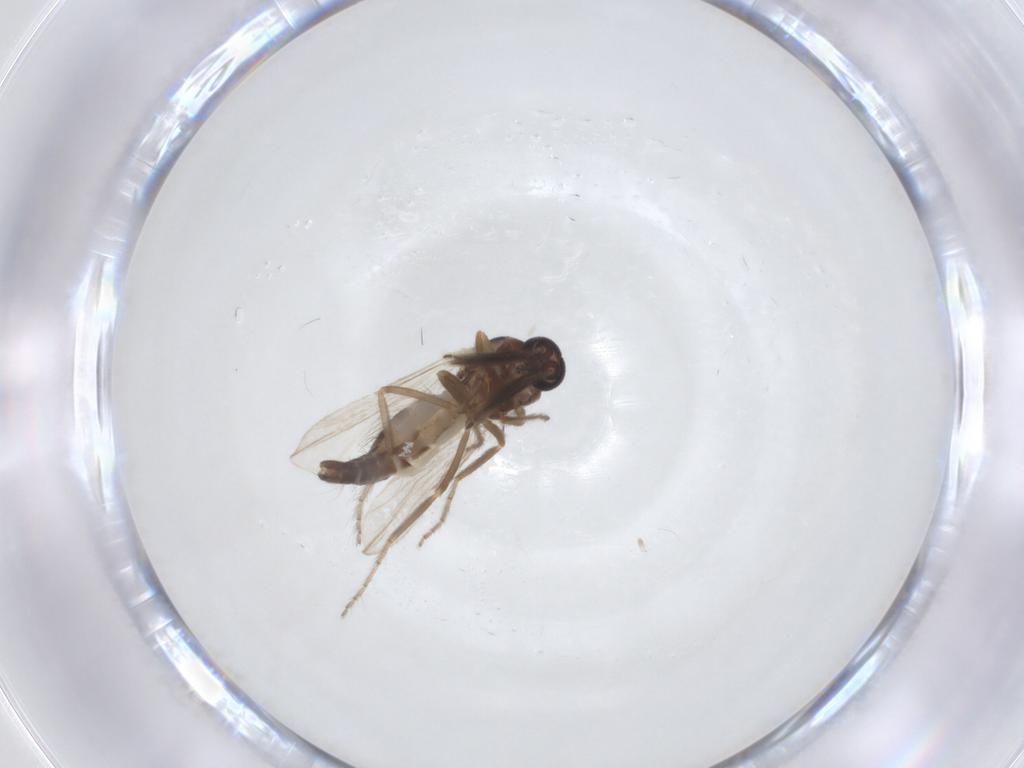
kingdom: Animalia
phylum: Arthropoda
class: Insecta
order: Diptera
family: Ceratopogonidae
